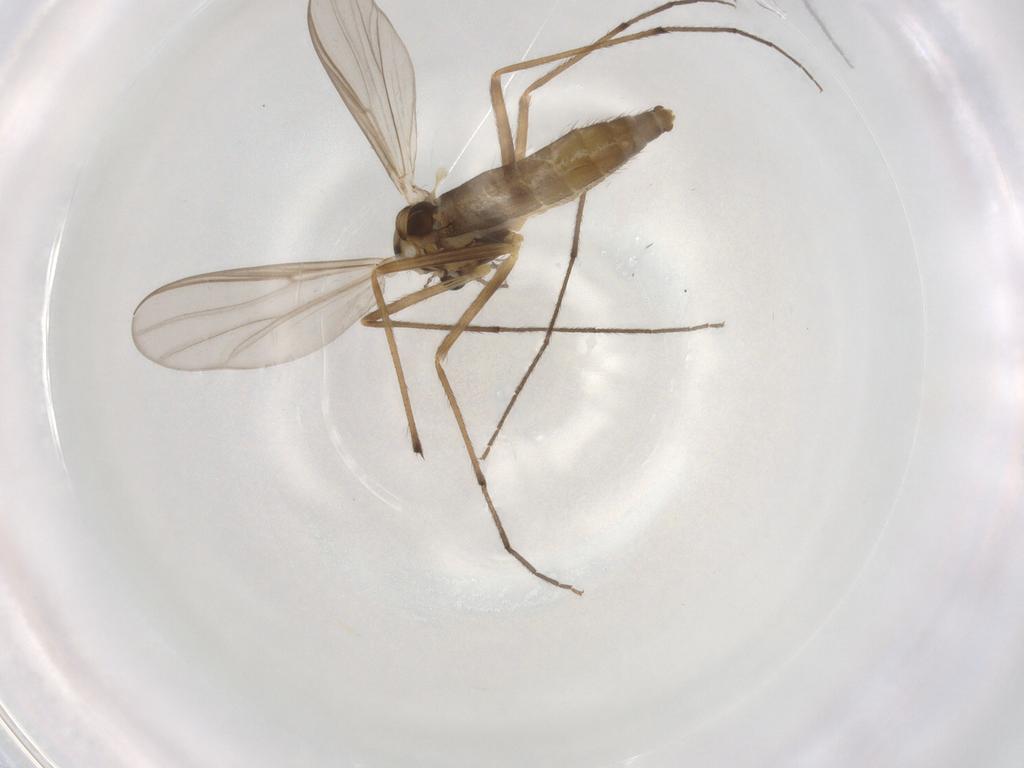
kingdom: Animalia
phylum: Arthropoda
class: Insecta
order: Diptera
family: Chironomidae
